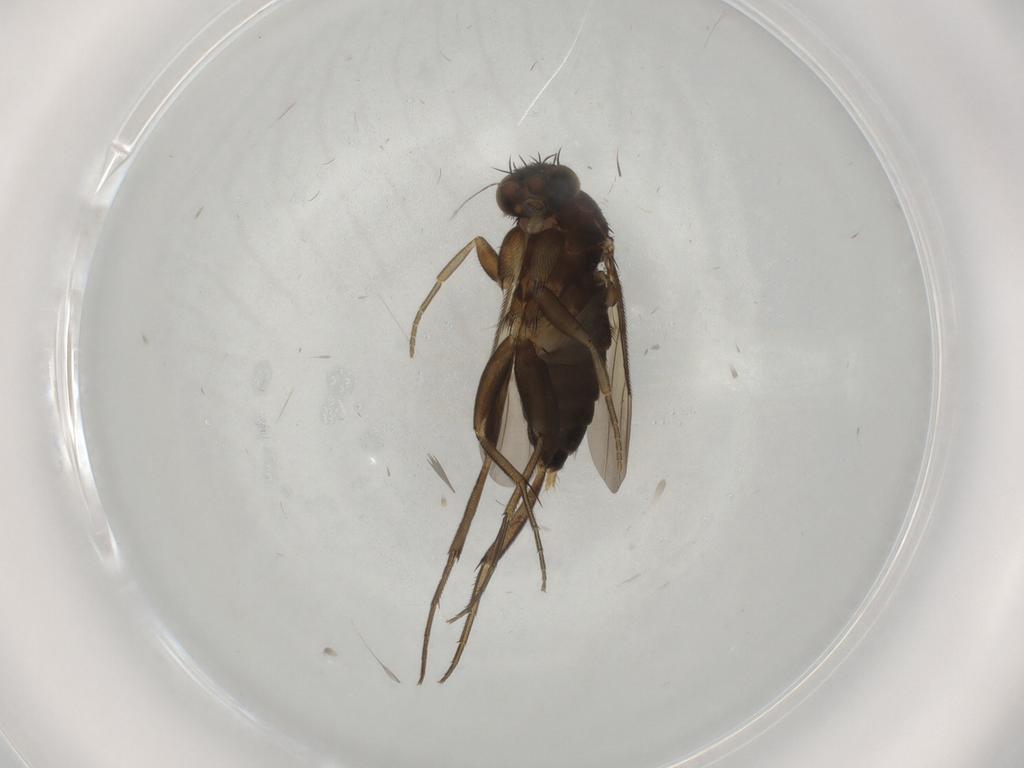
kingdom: Animalia
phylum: Arthropoda
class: Insecta
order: Diptera
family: Phoridae
